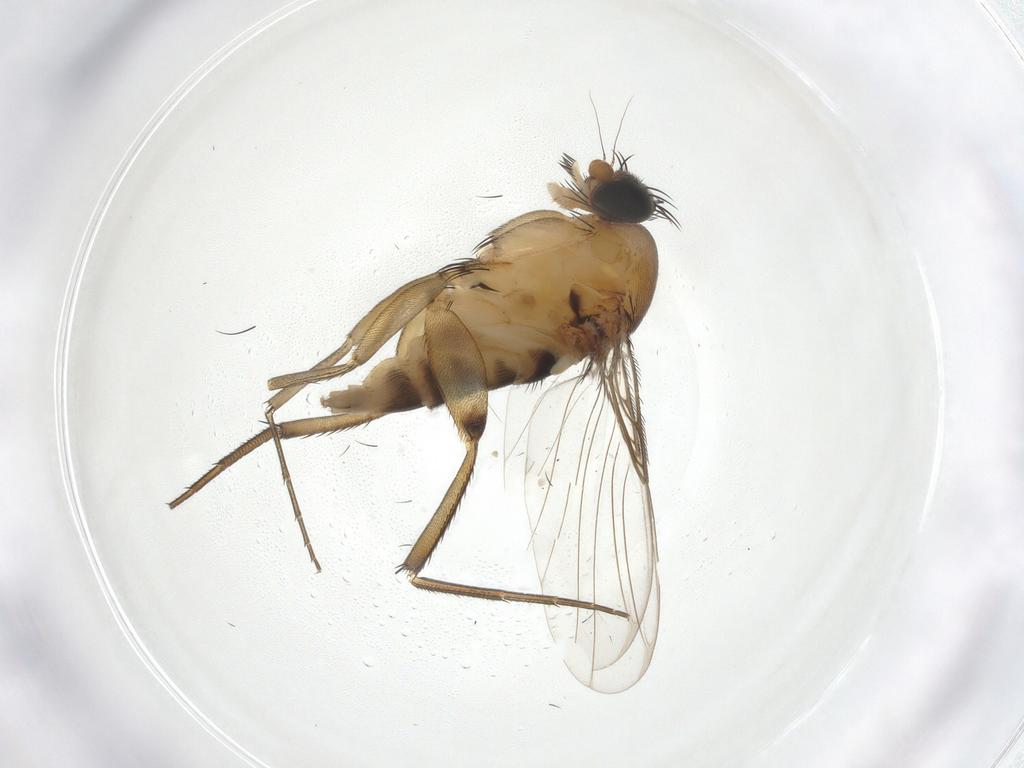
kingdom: Animalia
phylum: Arthropoda
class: Insecta
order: Diptera
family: Phoridae
